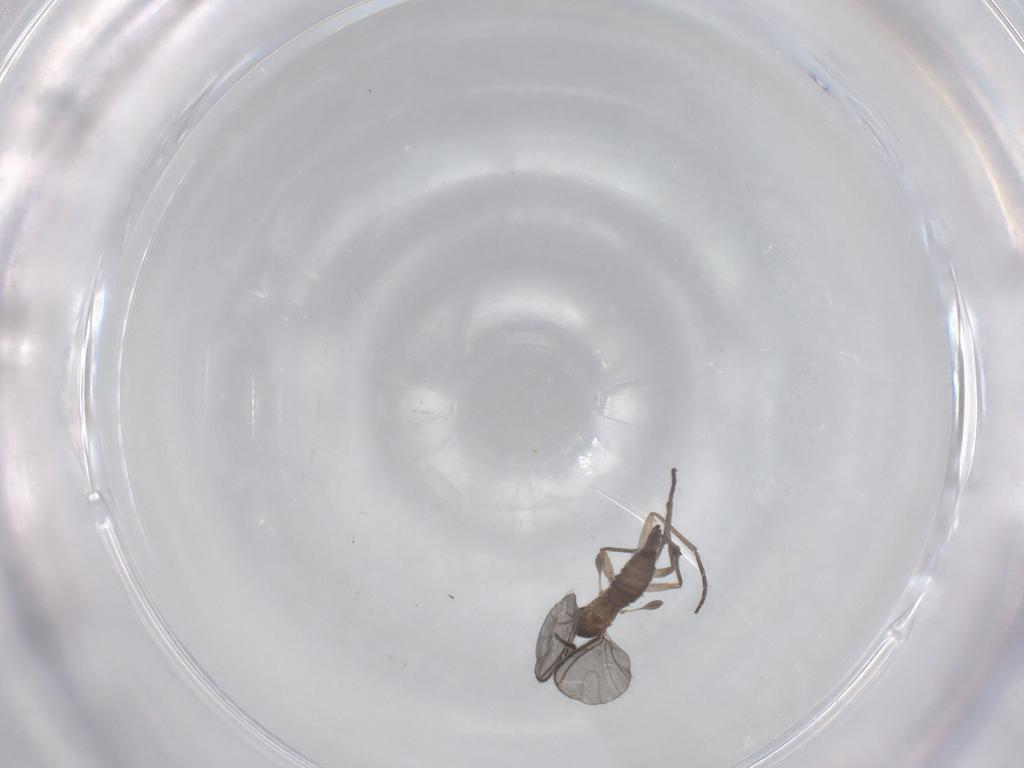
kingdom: Animalia
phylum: Arthropoda
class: Insecta
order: Diptera
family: Sciaridae
